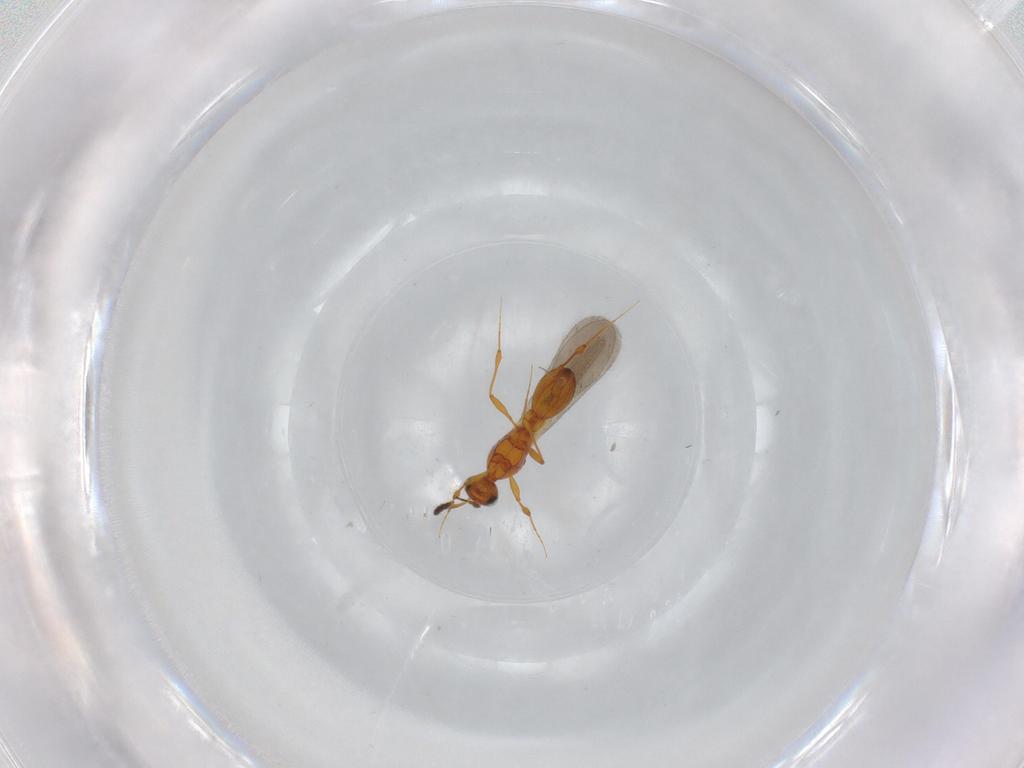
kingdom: Animalia
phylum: Arthropoda
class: Insecta
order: Hymenoptera
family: Platygastridae
